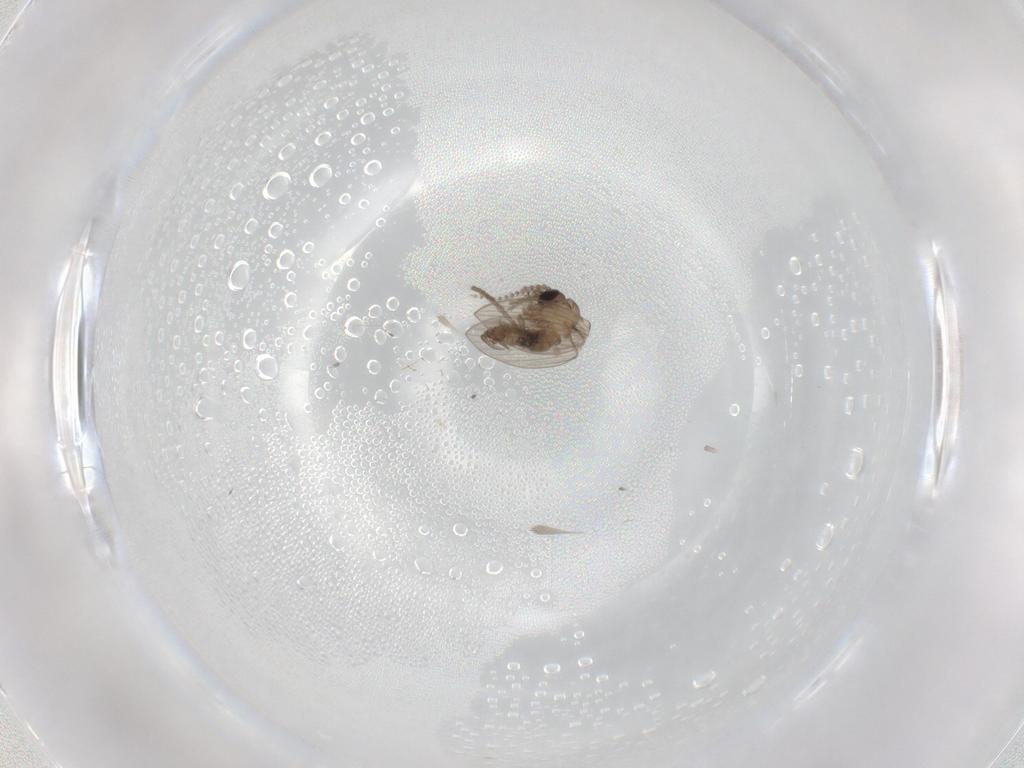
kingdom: Animalia
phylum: Arthropoda
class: Insecta
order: Diptera
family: Psychodidae
